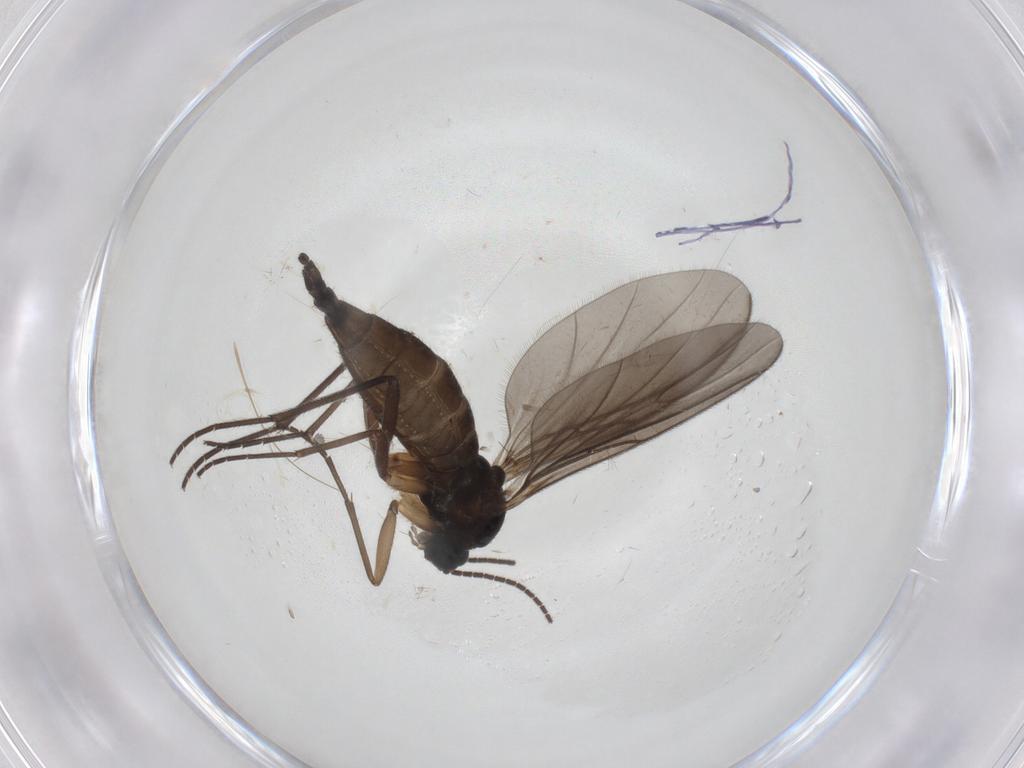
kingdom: Animalia
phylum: Arthropoda
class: Insecta
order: Diptera
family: Sciaridae
